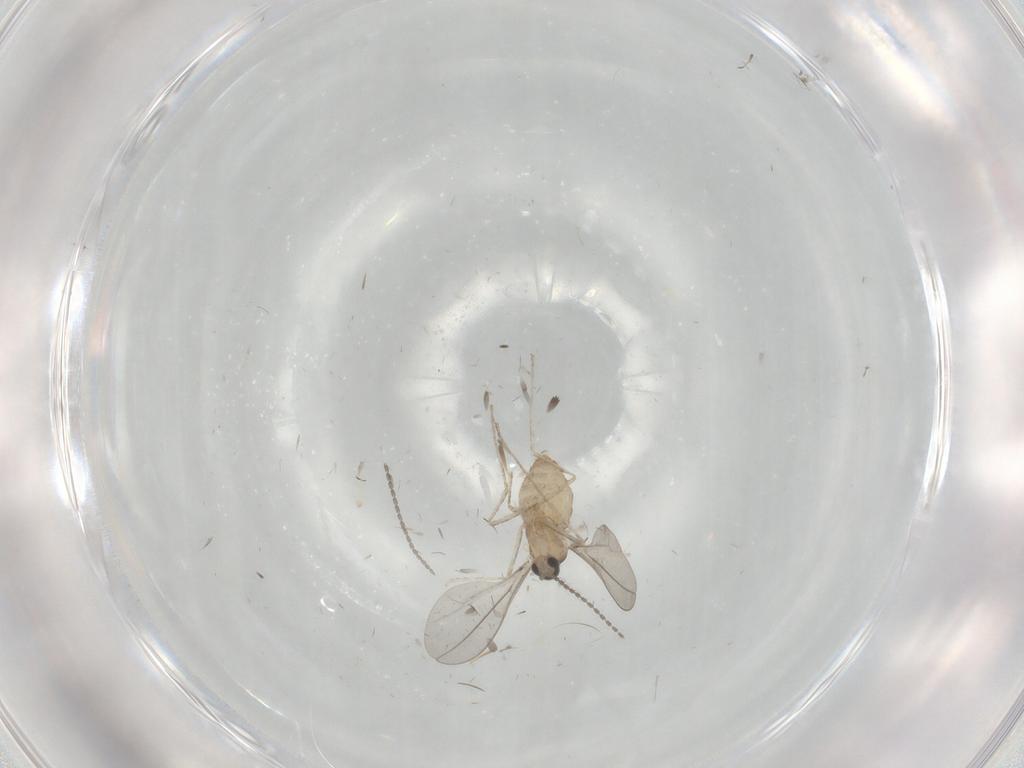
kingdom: Animalia
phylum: Arthropoda
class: Insecta
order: Diptera
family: Cecidomyiidae
